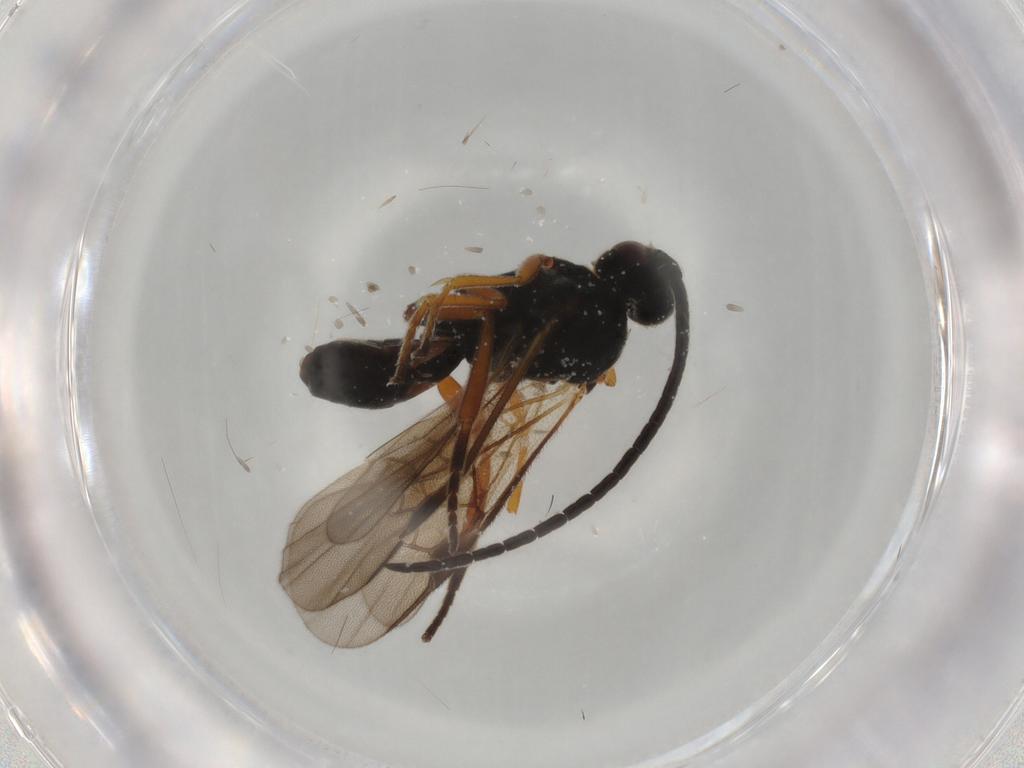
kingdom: Animalia
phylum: Arthropoda
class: Insecta
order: Hymenoptera
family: Braconidae
